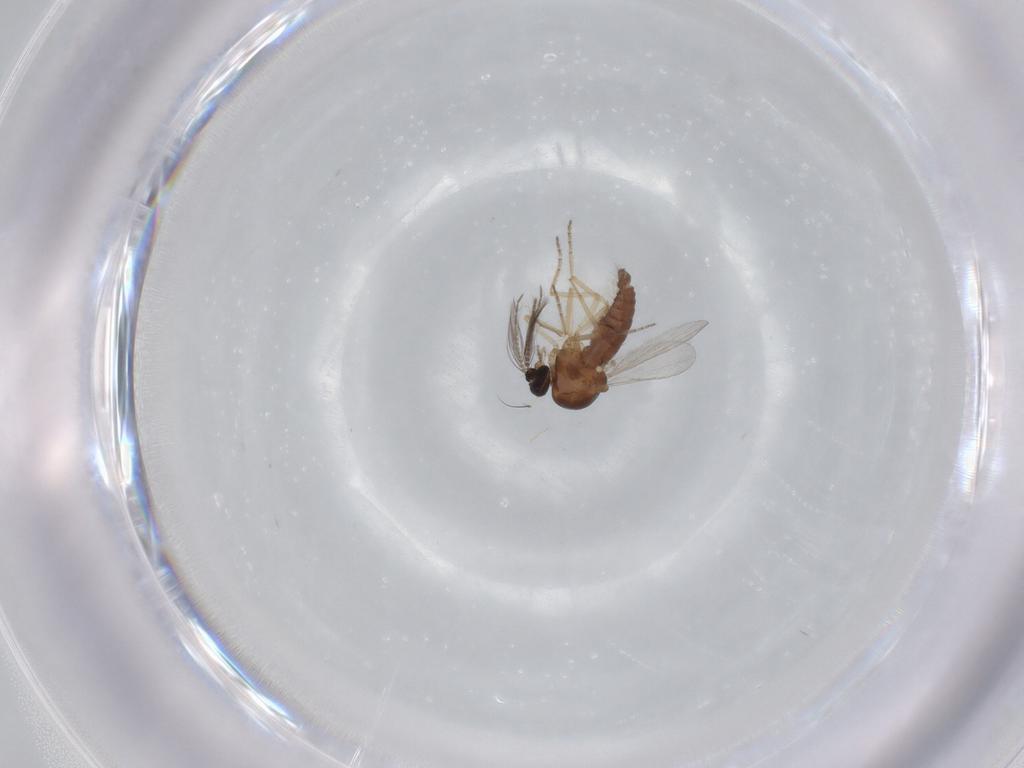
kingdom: Animalia
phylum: Arthropoda
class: Insecta
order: Diptera
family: Ceratopogonidae
